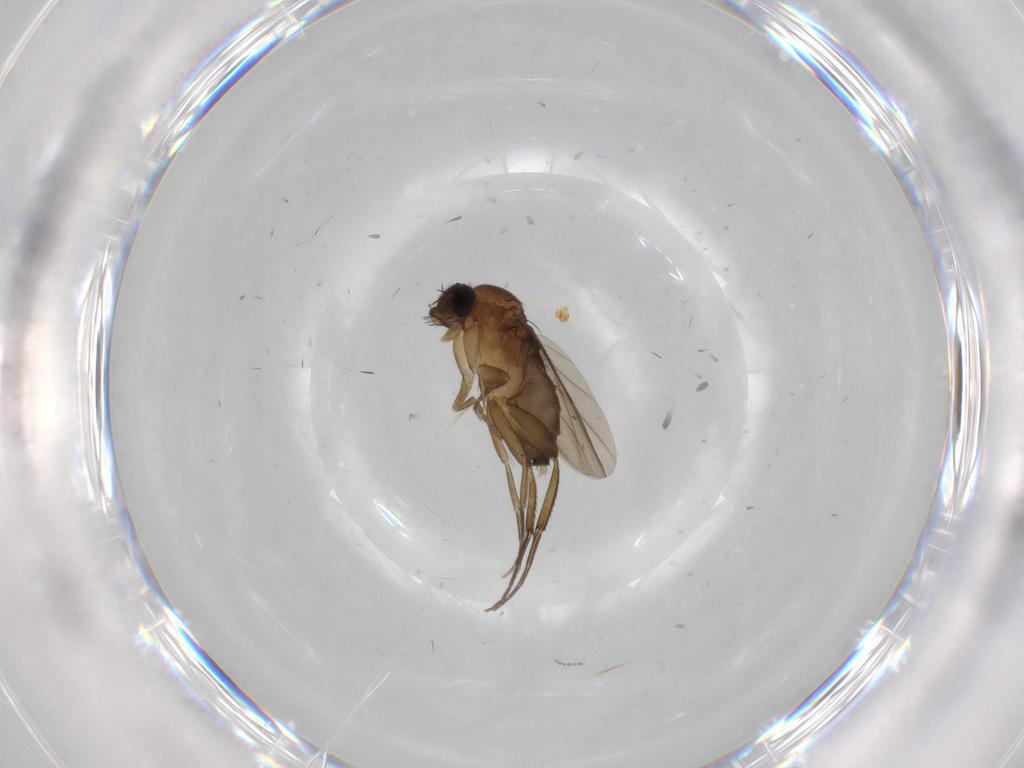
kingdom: Animalia
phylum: Arthropoda
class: Insecta
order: Diptera
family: Phoridae
